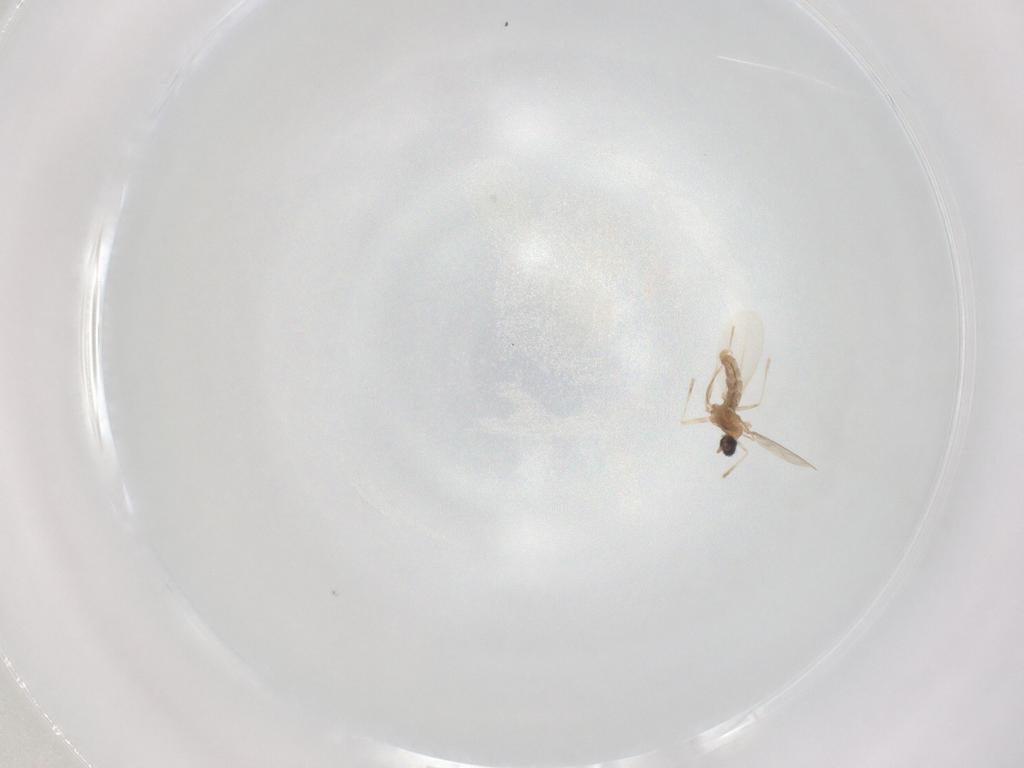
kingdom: Animalia
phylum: Arthropoda
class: Insecta
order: Diptera
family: Cecidomyiidae
